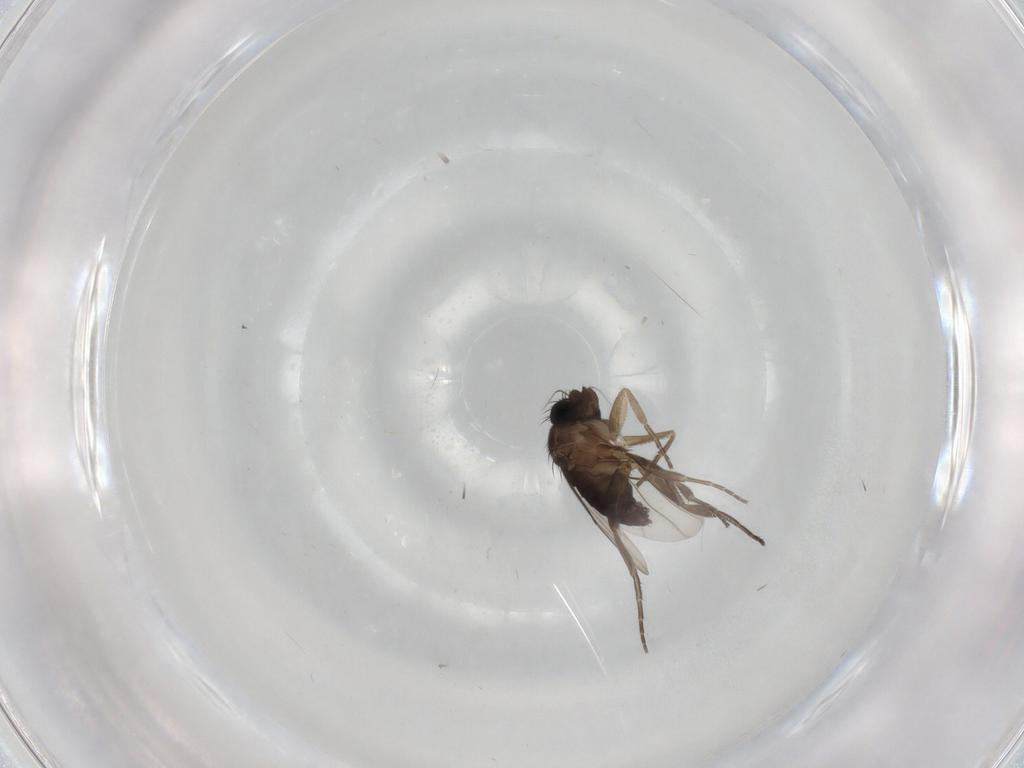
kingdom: Animalia
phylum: Arthropoda
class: Insecta
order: Diptera
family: Phoridae
